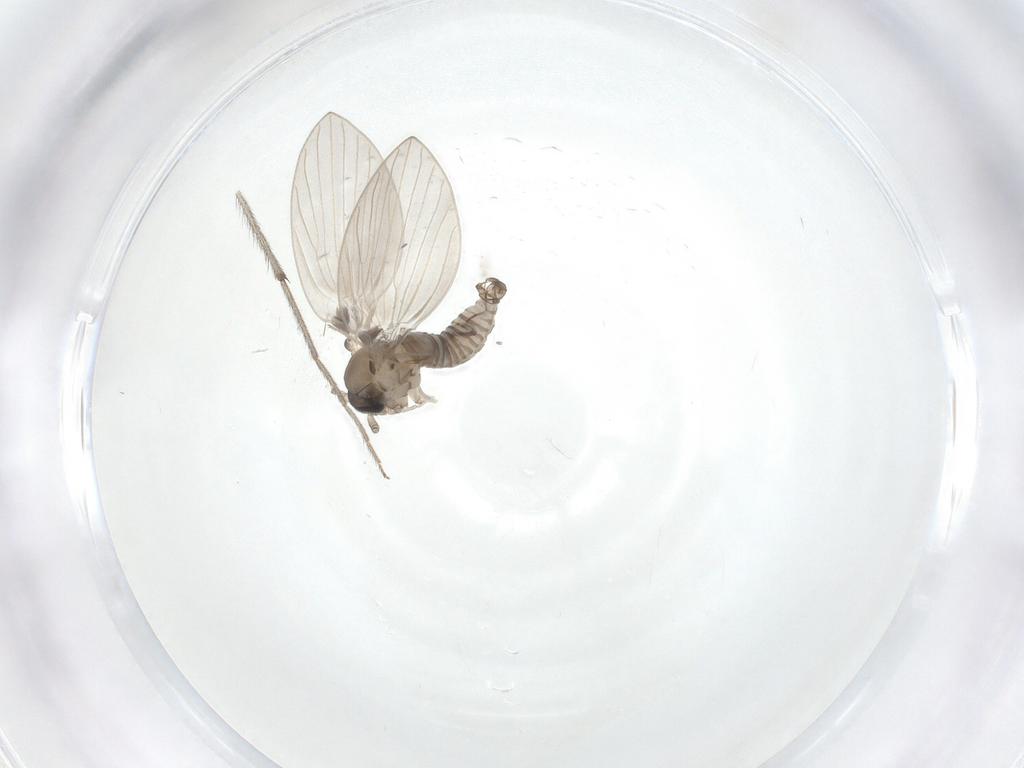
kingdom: Animalia
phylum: Arthropoda
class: Insecta
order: Diptera
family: Psychodidae
